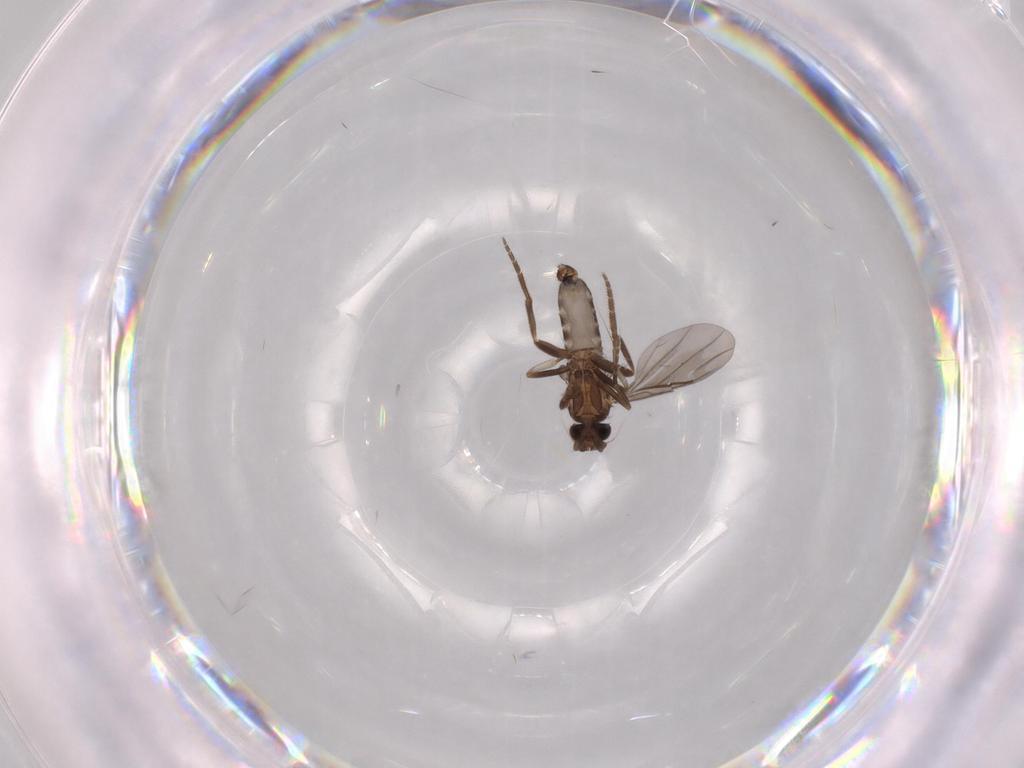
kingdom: Animalia
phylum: Arthropoda
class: Insecta
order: Diptera
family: Phoridae
